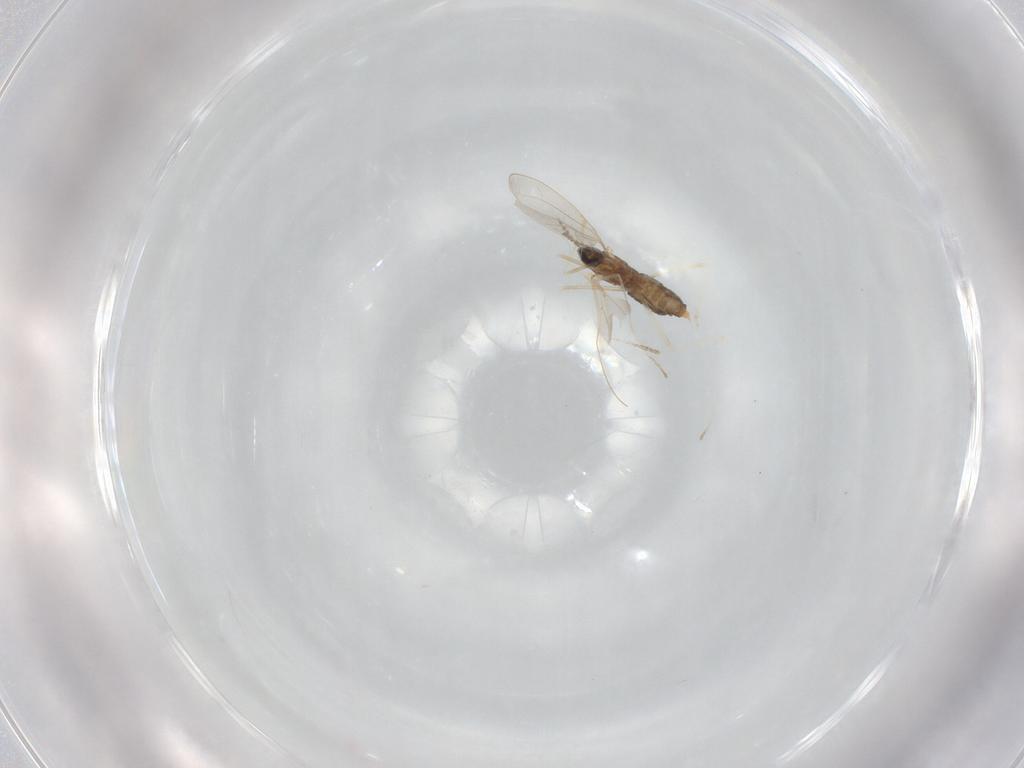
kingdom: Animalia
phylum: Arthropoda
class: Insecta
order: Diptera
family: Cecidomyiidae
